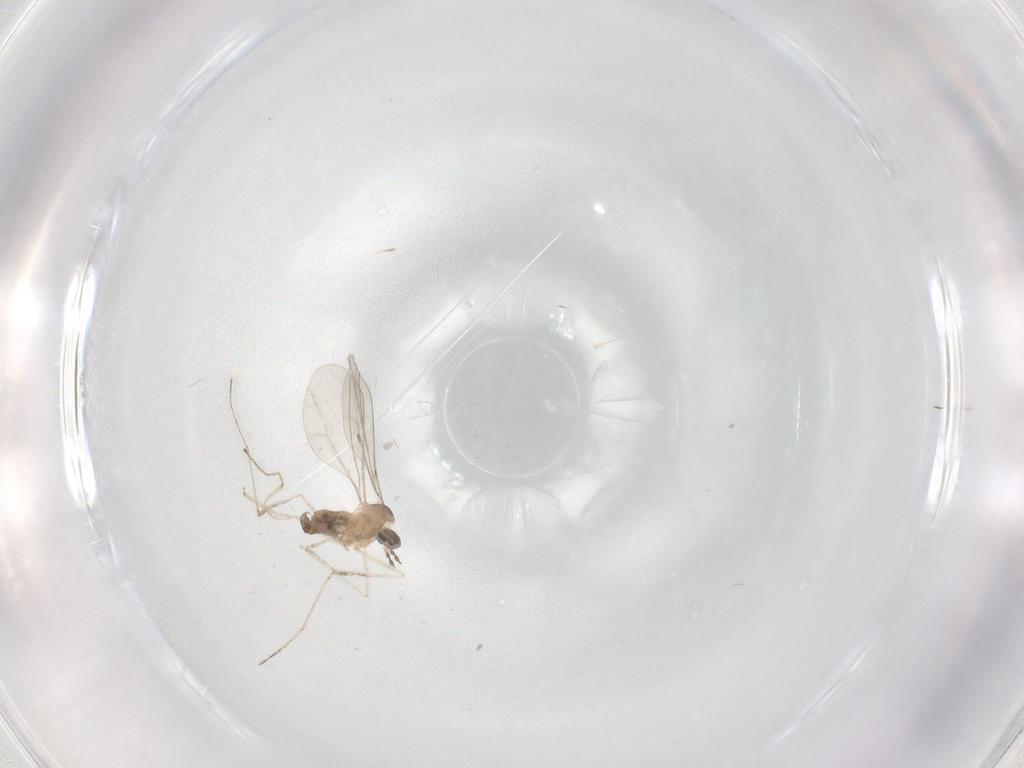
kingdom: Animalia
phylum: Arthropoda
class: Insecta
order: Diptera
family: Cecidomyiidae
